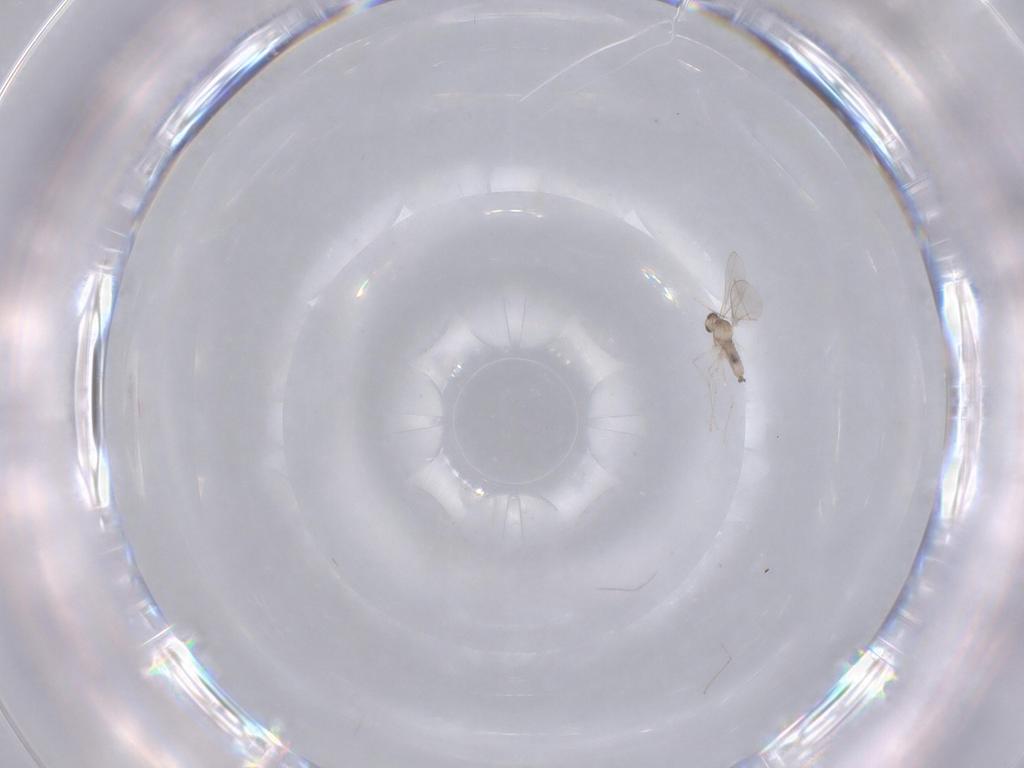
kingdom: Animalia
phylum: Arthropoda
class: Insecta
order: Diptera
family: Cecidomyiidae
